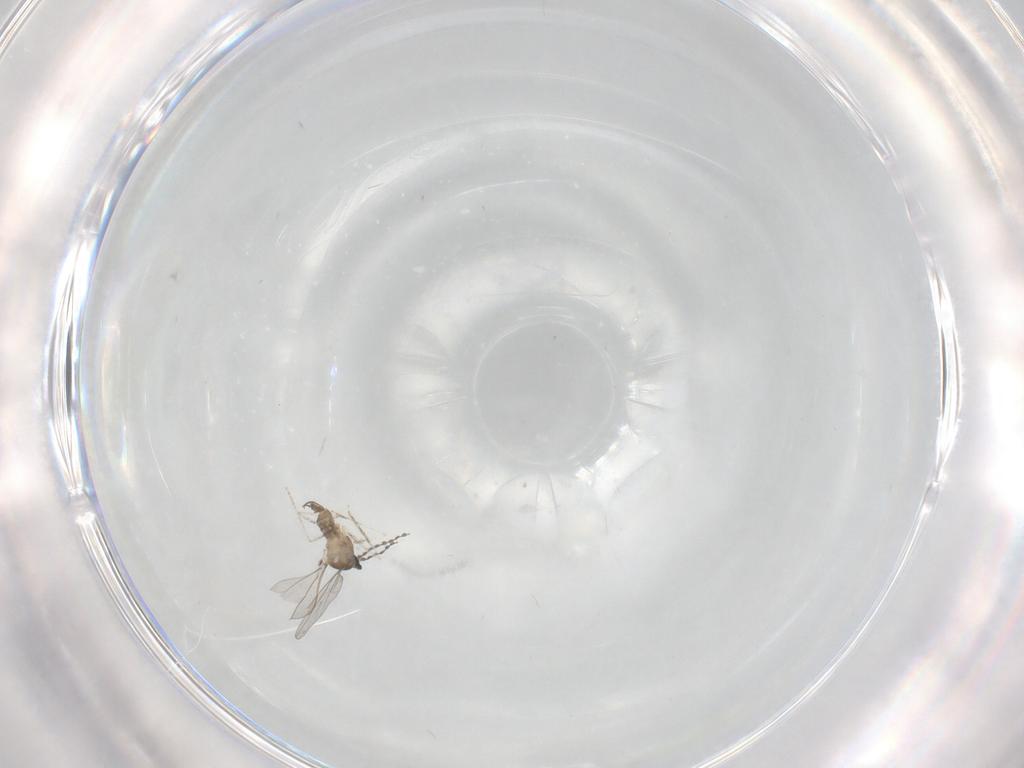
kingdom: Animalia
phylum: Arthropoda
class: Insecta
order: Diptera
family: Cecidomyiidae
